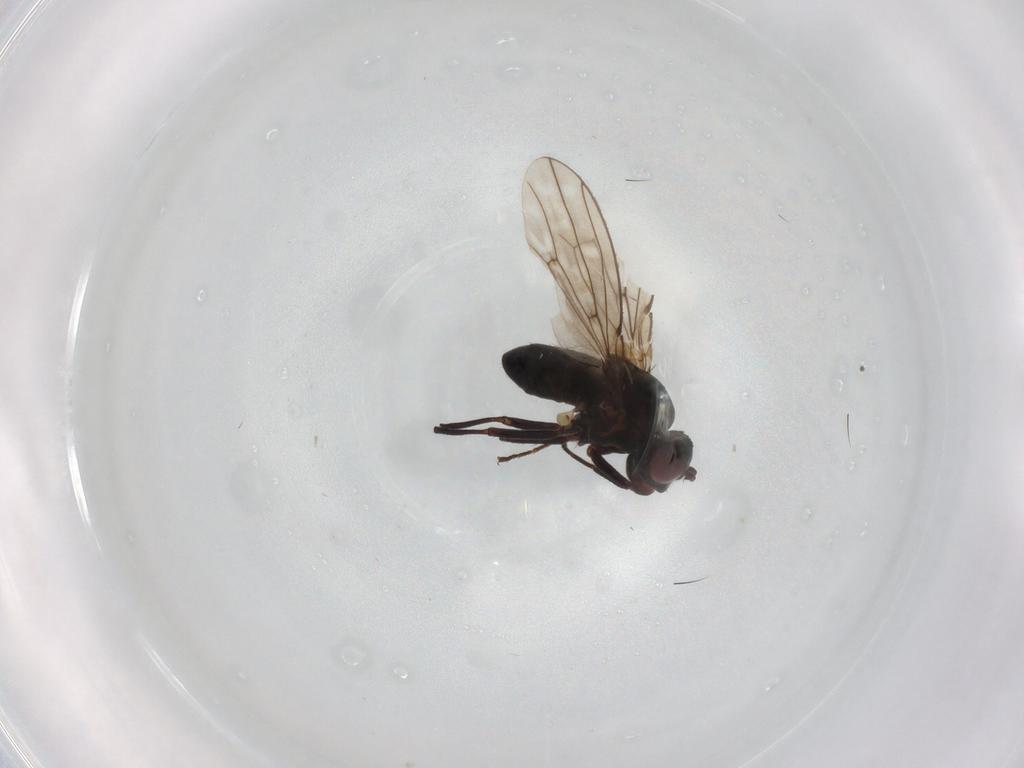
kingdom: Animalia
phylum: Arthropoda
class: Insecta
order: Diptera
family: Ephydridae
